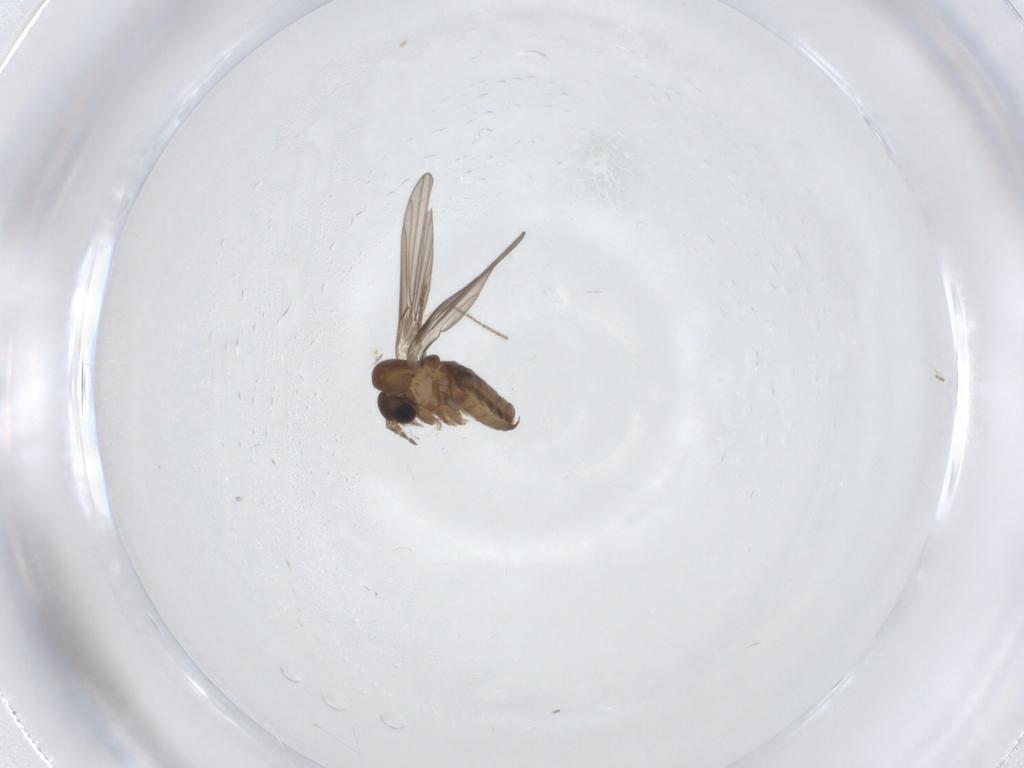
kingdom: Animalia
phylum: Arthropoda
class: Insecta
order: Diptera
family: Psychodidae
